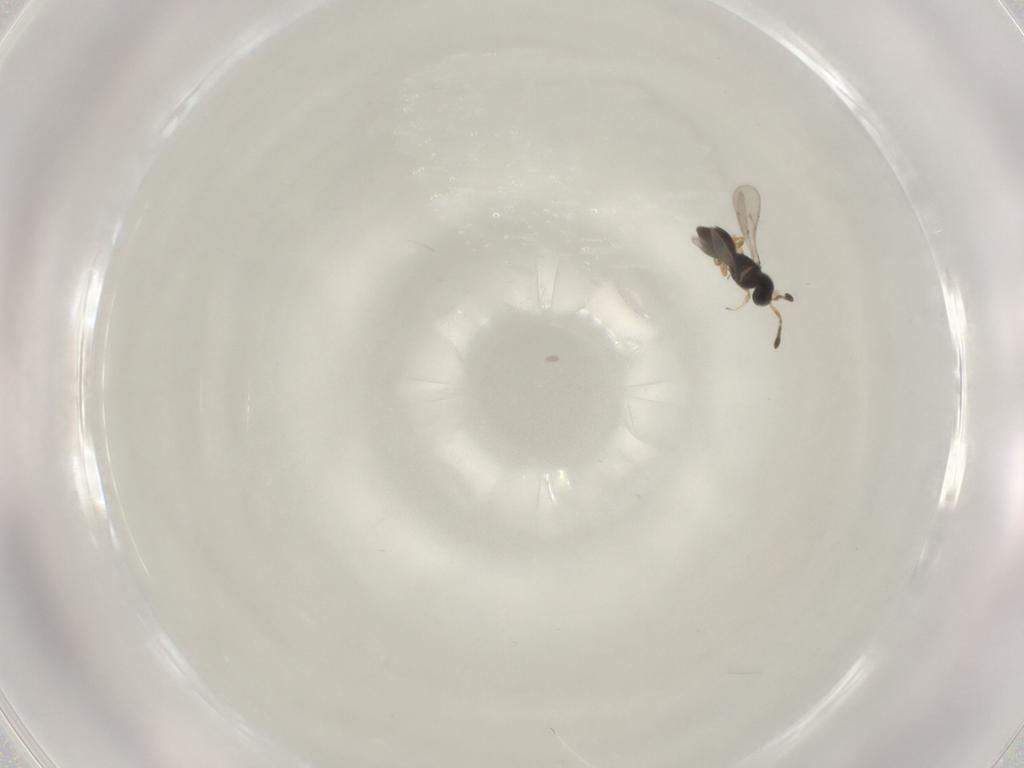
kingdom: Animalia
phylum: Arthropoda
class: Insecta
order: Hymenoptera
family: Scelionidae
